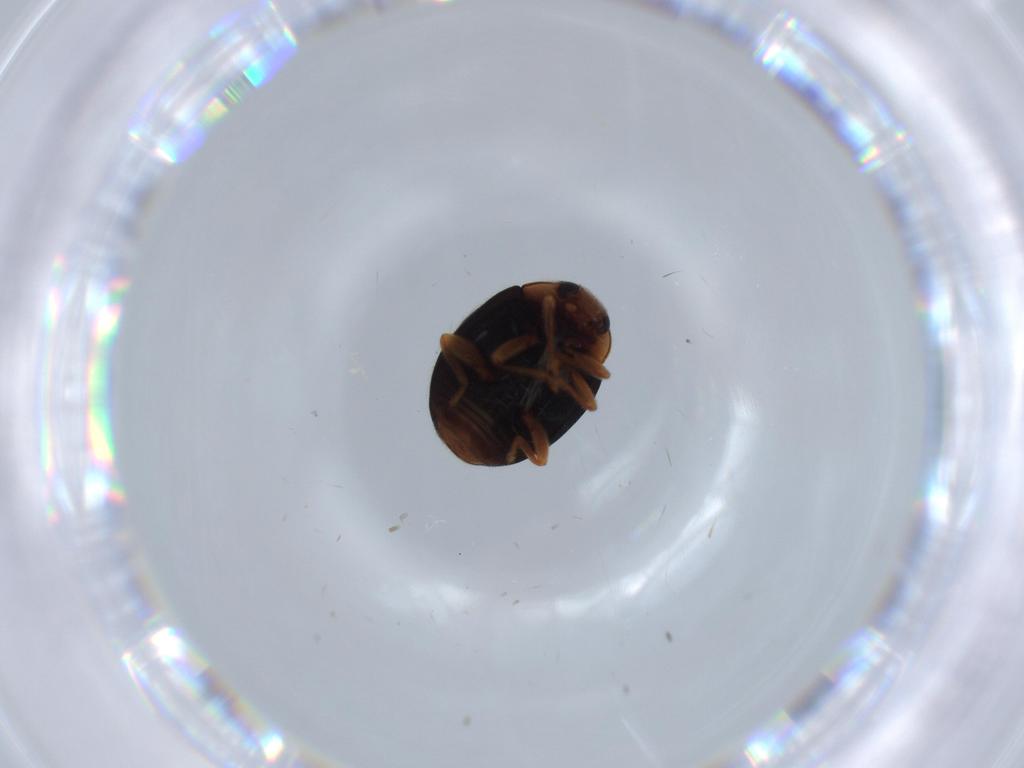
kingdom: Animalia
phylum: Arthropoda
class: Insecta
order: Coleoptera
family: Coccinellidae
